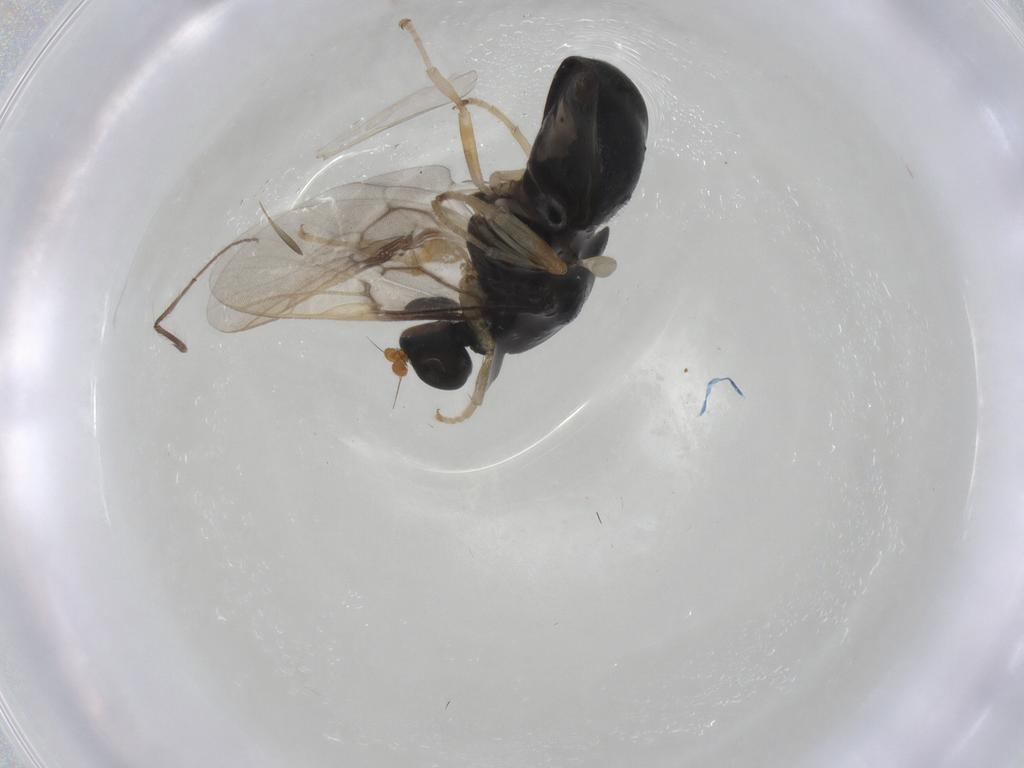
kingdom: Animalia
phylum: Arthropoda
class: Insecta
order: Diptera
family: Stratiomyidae
